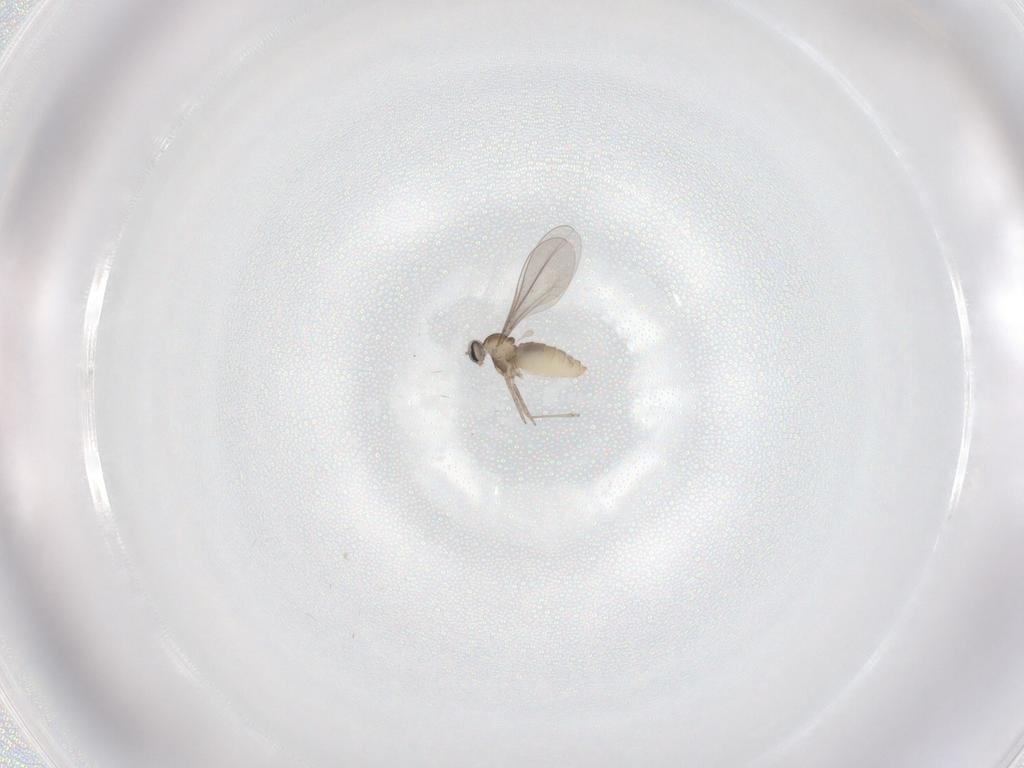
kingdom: Animalia
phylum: Arthropoda
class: Insecta
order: Diptera
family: Cecidomyiidae
